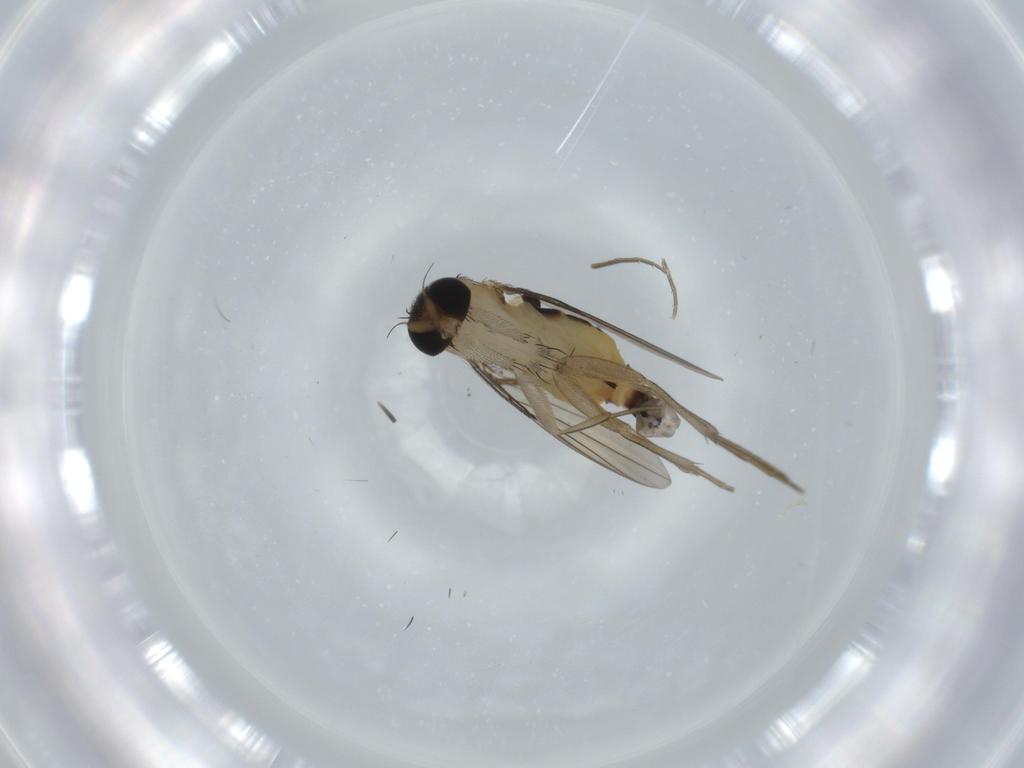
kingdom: Animalia
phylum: Arthropoda
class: Insecta
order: Diptera
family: Phoridae
